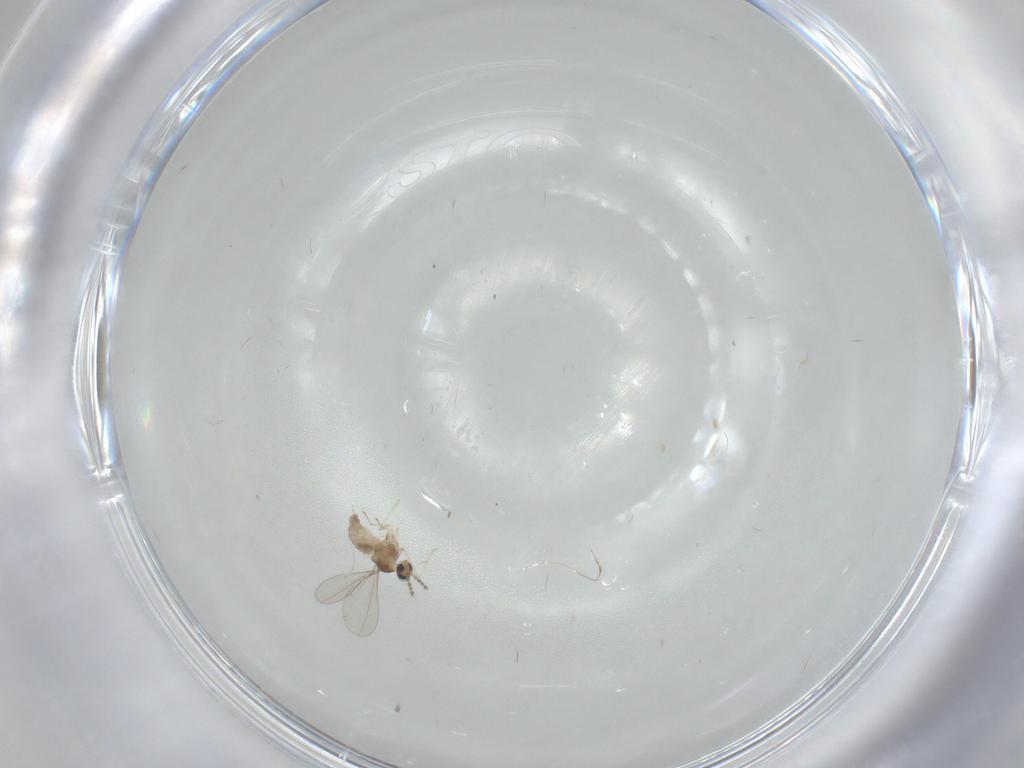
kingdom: Animalia
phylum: Arthropoda
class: Insecta
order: Diptera
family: Cecidomyiidae
